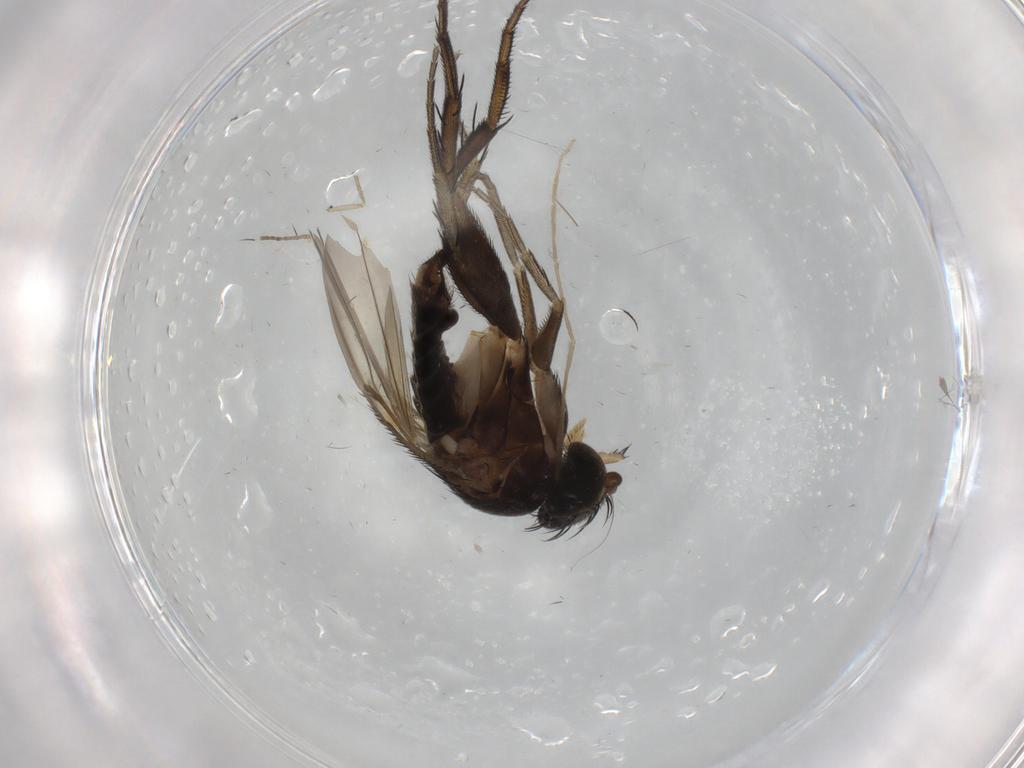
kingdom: Animalia
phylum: Arthropoda
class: Insecta
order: Diptera
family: Phoridae
